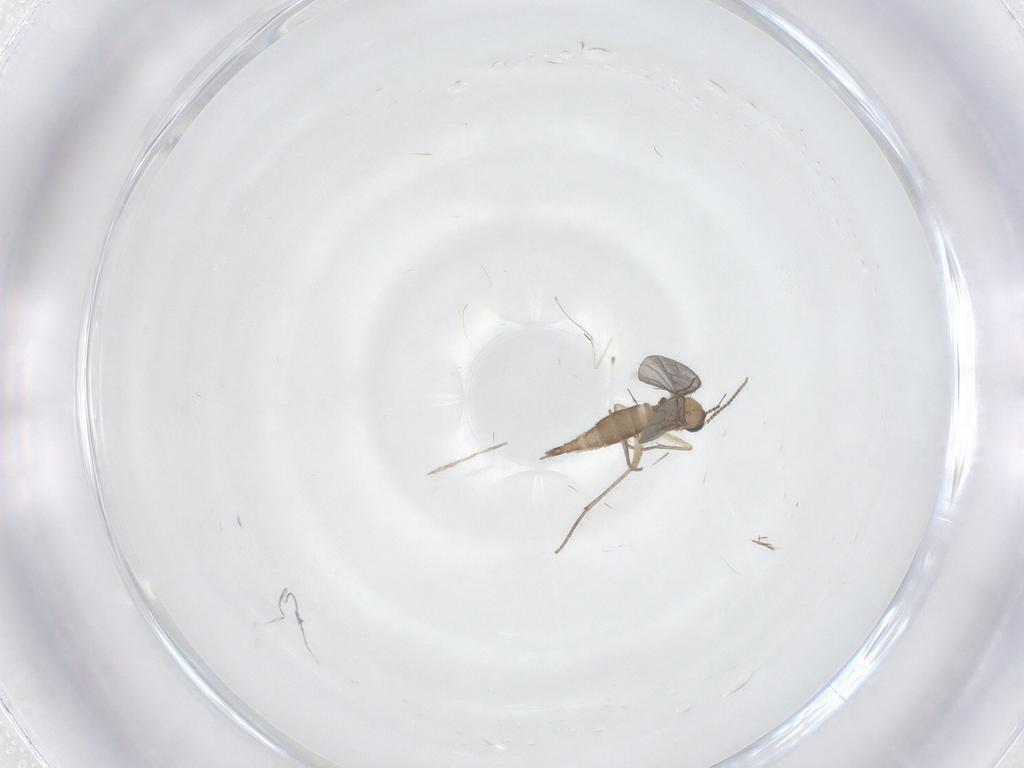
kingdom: Animalia
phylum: Arthropoda
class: Insecta
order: Diptera
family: Chironomidae
